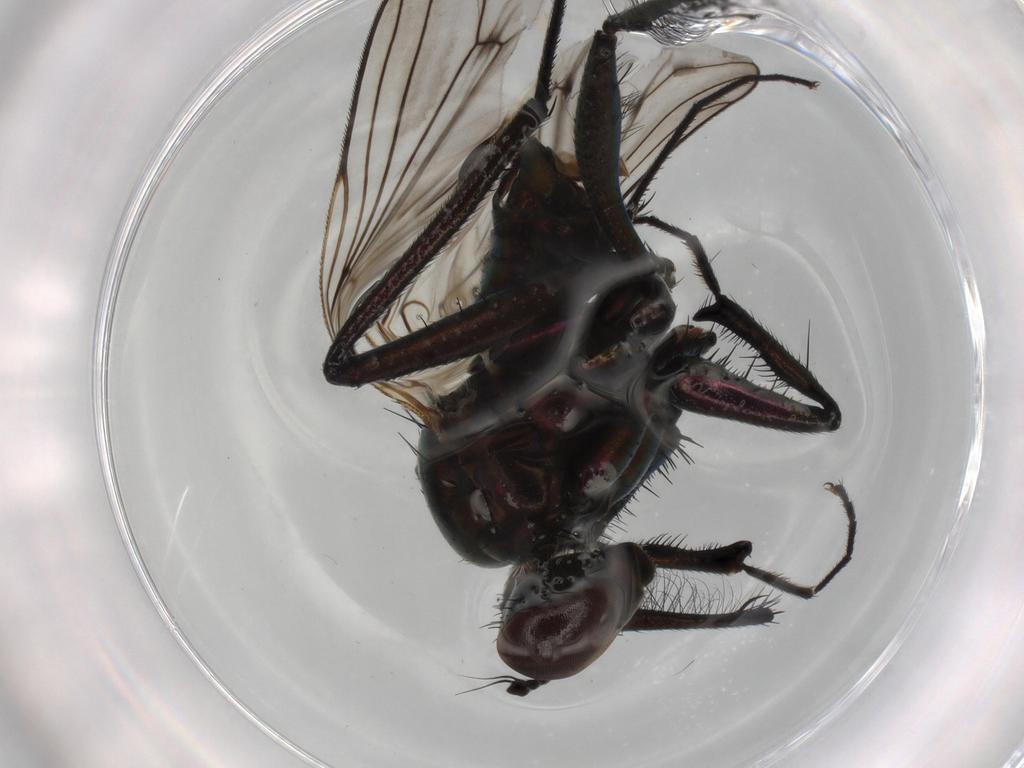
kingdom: Animalia
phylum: Arthropoda
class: Insecta
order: Diptera
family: Dolichopodidae
